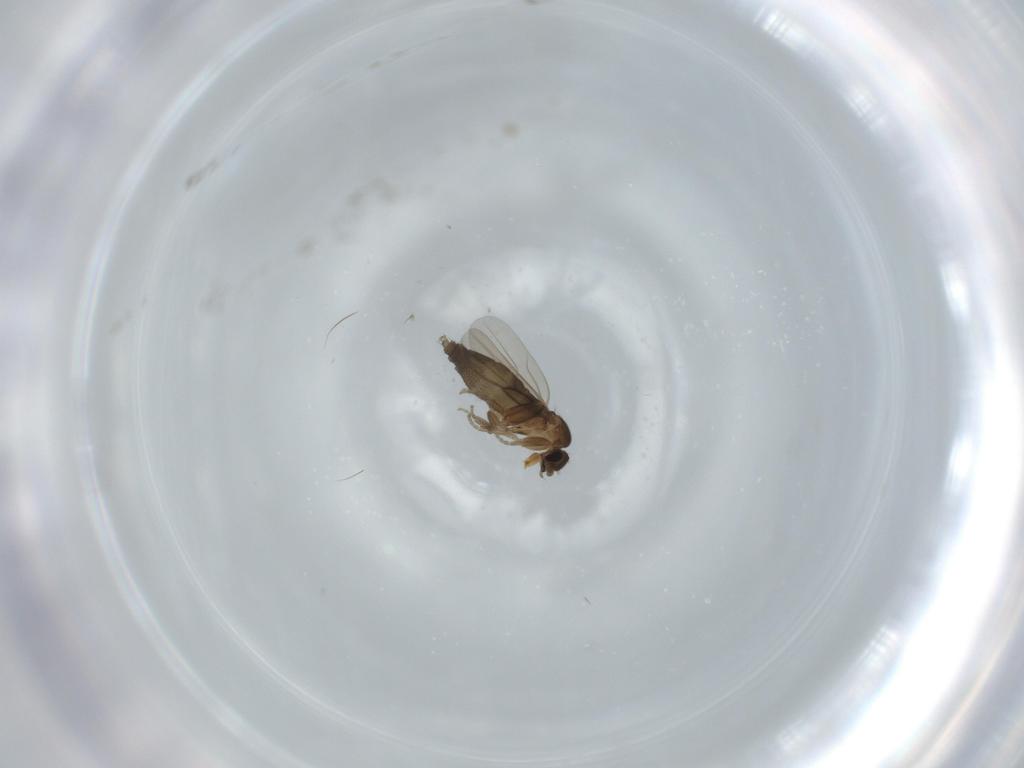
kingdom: Animalia
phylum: Arthropoda
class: Insecta
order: Diptera
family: Phoridae
